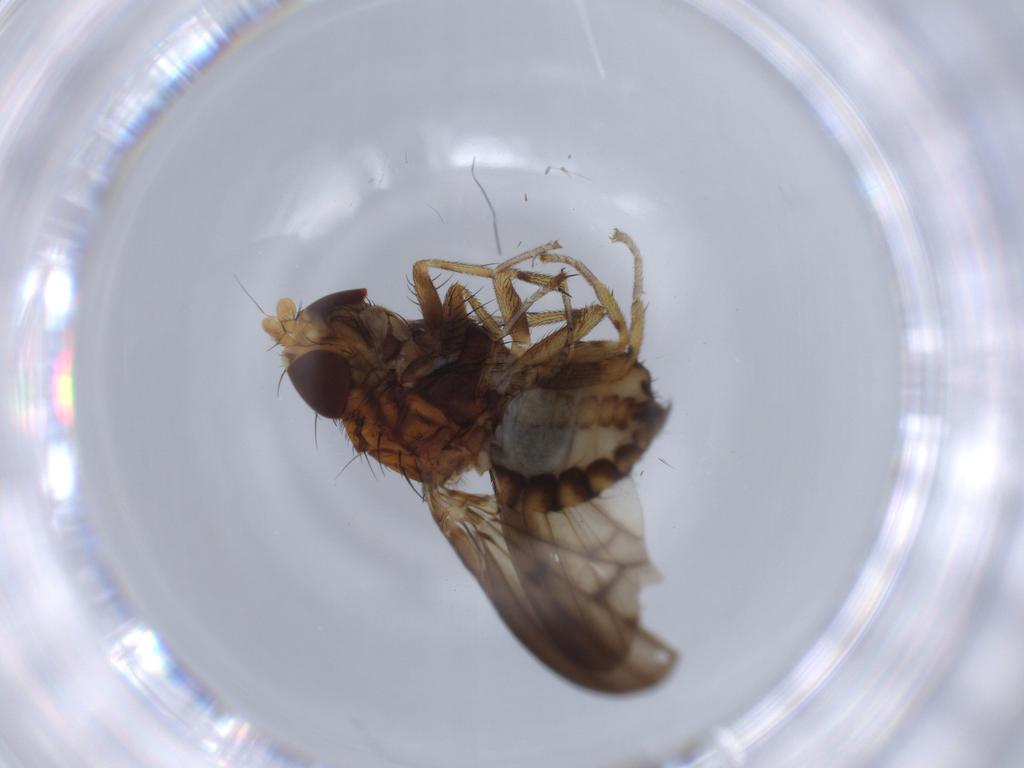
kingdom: Animalia
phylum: Arthropoda
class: Insecta
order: Diptera
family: Lauxaniidae
